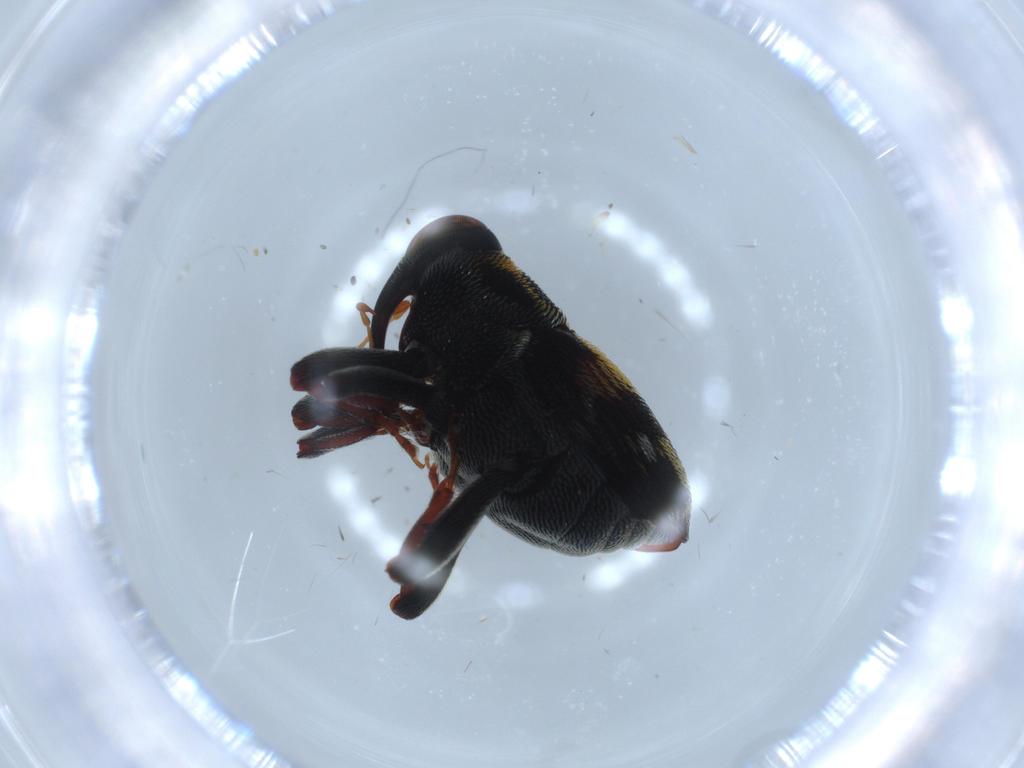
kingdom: Animalia
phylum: Arthropoda
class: Insecta
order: Coleoptera
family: Curculionidae
